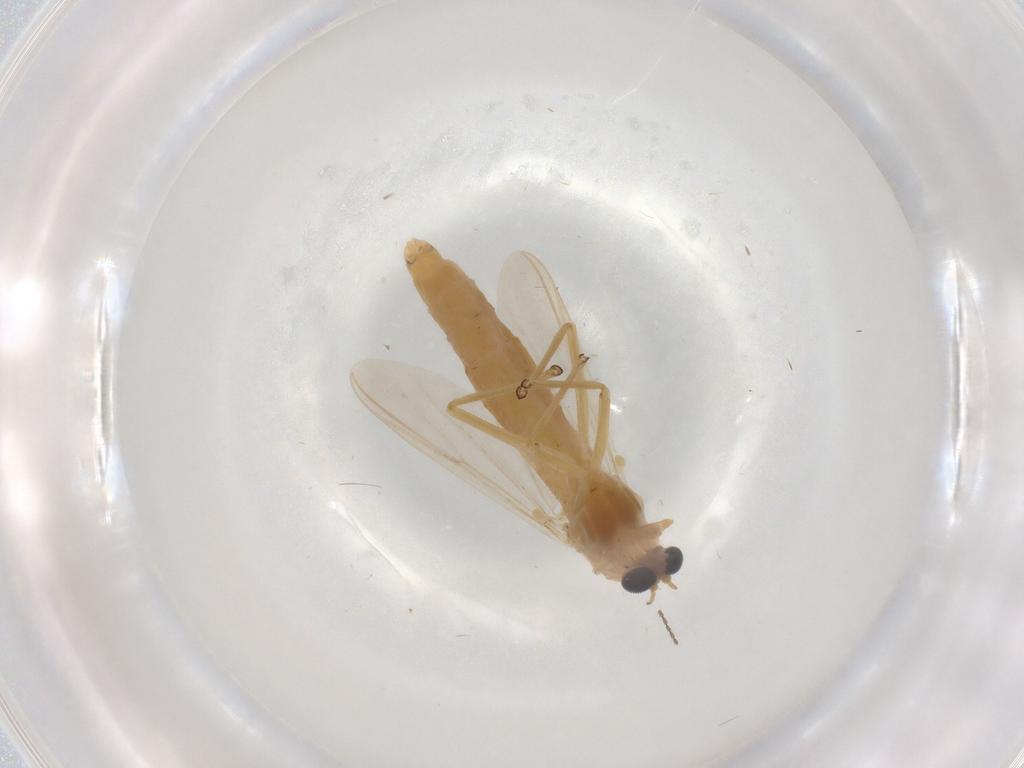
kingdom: Animalia
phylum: Arthropoda
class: Insecta
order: Diptera
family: Chironomidae
